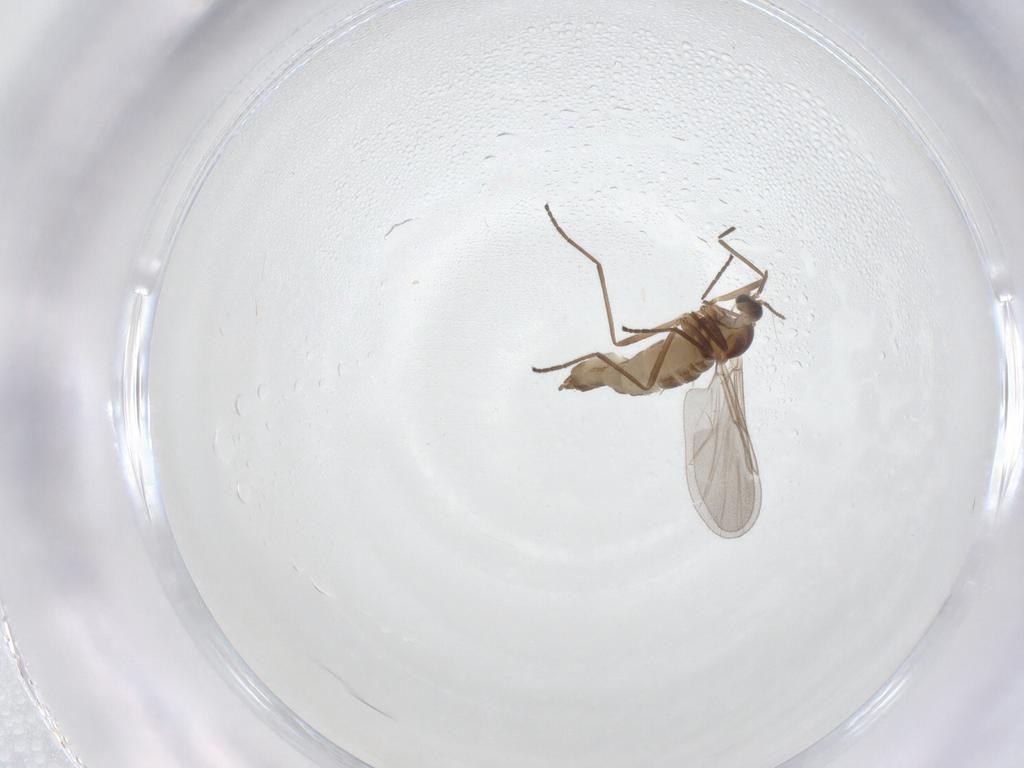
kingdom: Animalia
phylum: Arthropoda
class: Insecta
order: Diptera
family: Cecidomyiidae
